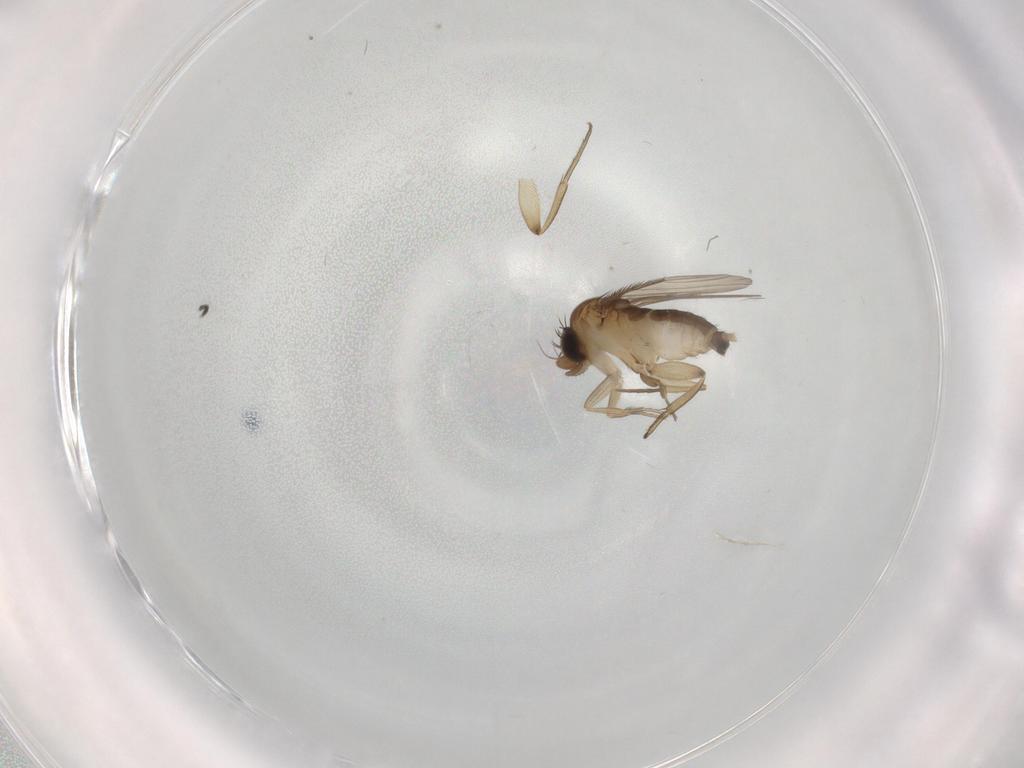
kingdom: Animalia
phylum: Arthropoda
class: Insecta
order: Diptera
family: Phoridae
